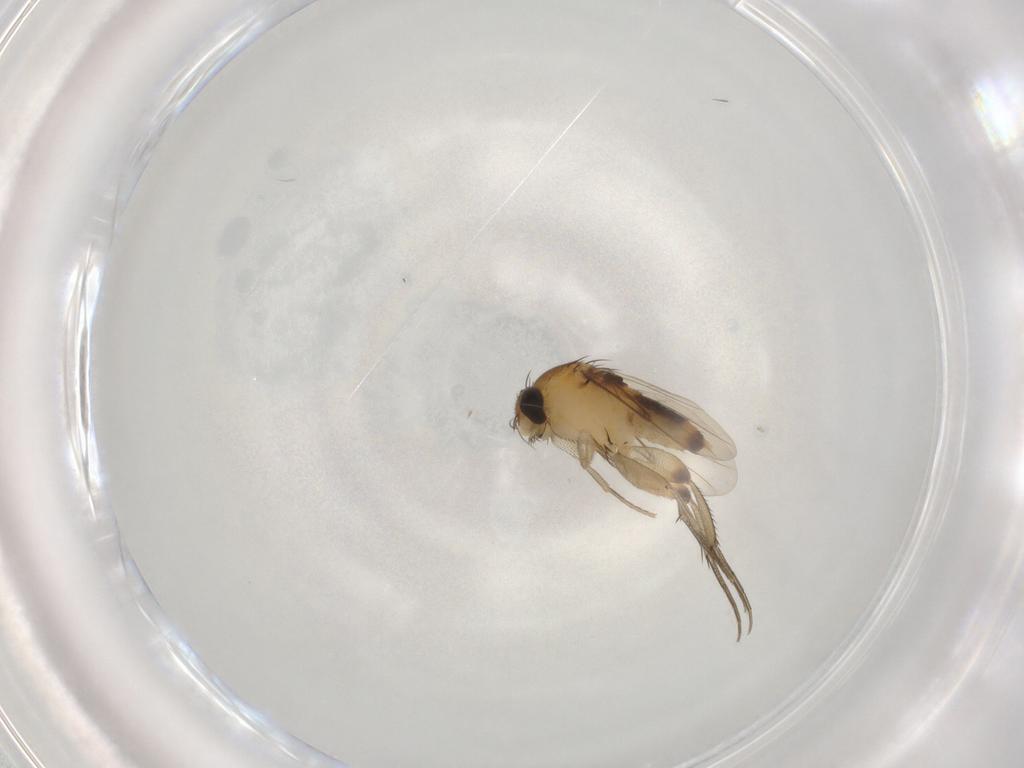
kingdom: Animalia
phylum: Arthropoda
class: Insecta
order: Diptera
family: Phoridae
